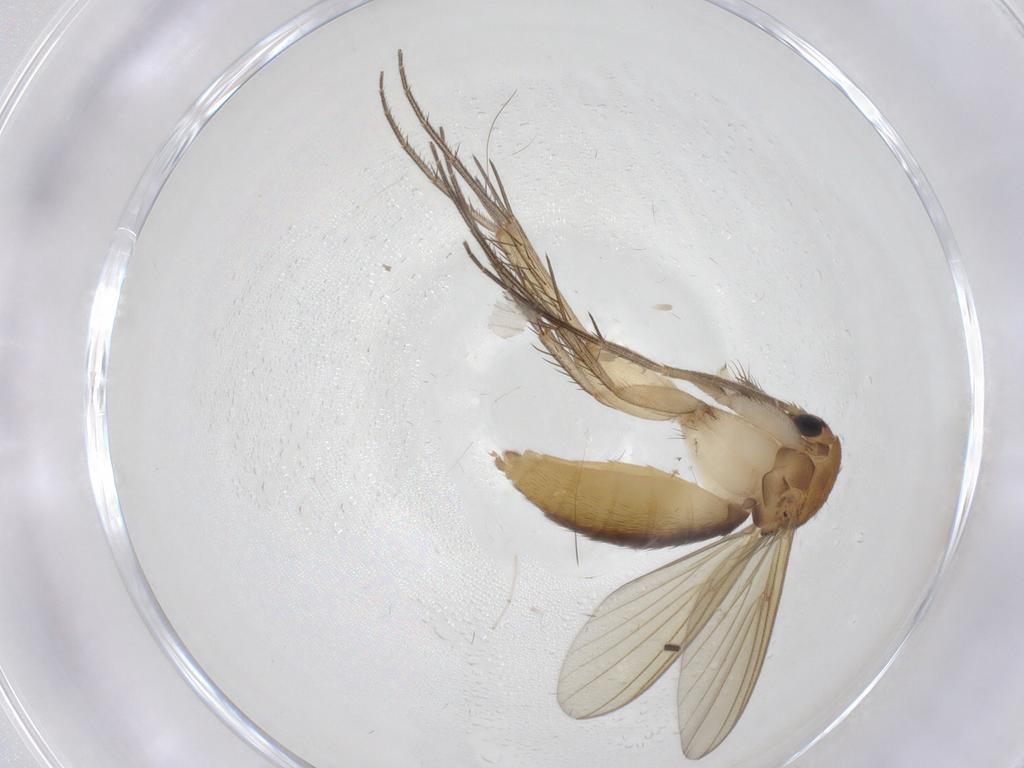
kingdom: Animalia
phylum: Arthropoda
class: Insecta
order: Diptera
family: Mycetophilidae
